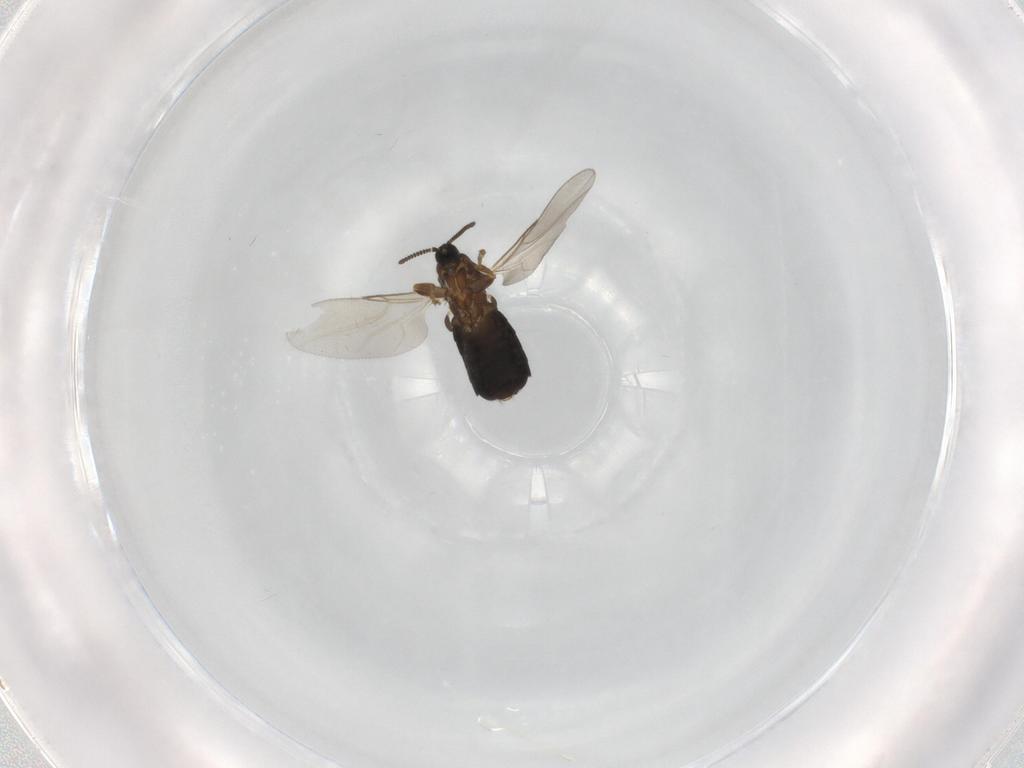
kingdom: Animalia
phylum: Arthropoda
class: Insecta
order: Diptera
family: Scatopsidae
